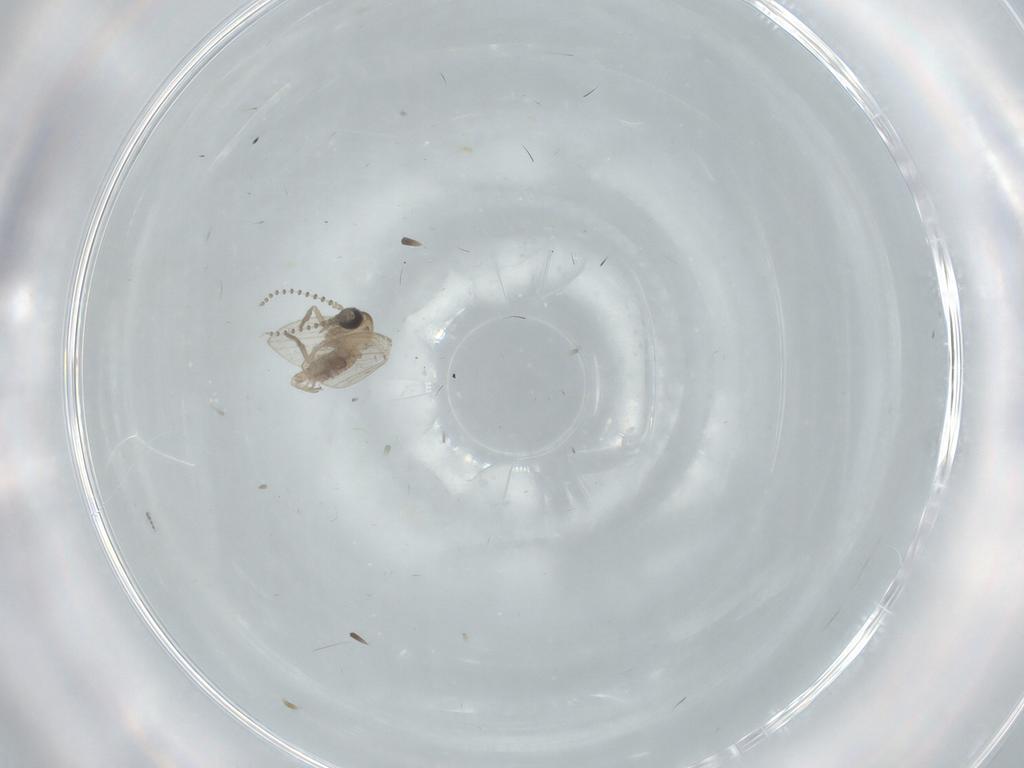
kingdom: Animalia
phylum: Arthropoda
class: Insecta
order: Diptera
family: Psychodidae
